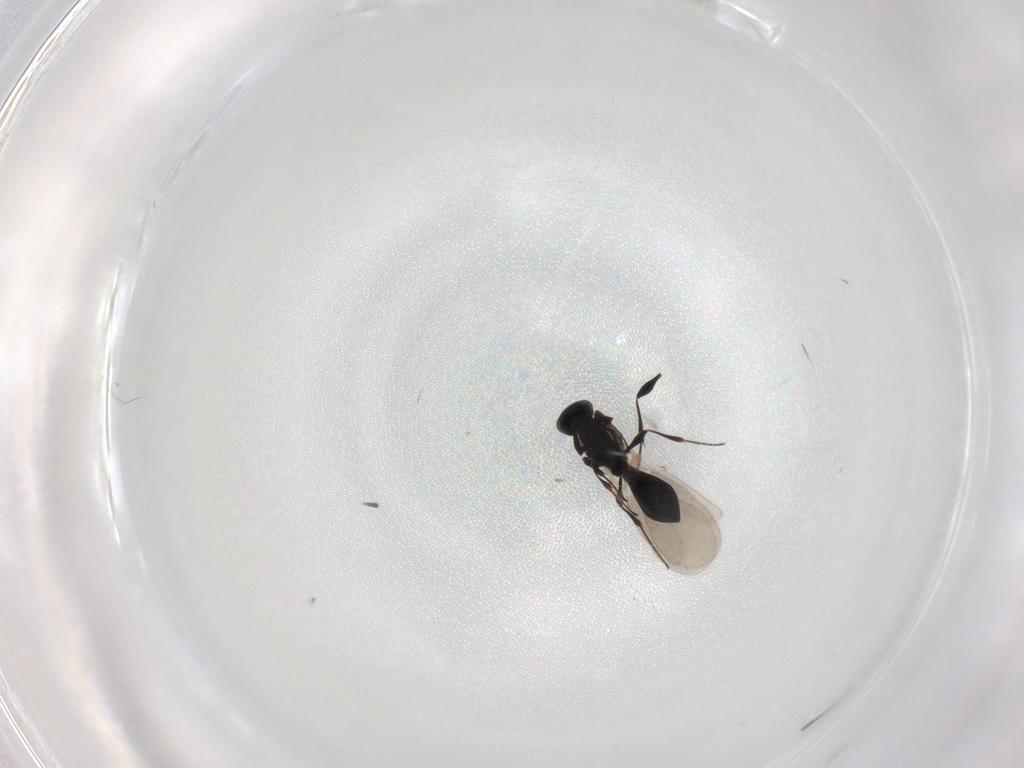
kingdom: Animalia
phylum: Arthropoda
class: Insecta
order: Hymenoptera
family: Platygastridae
